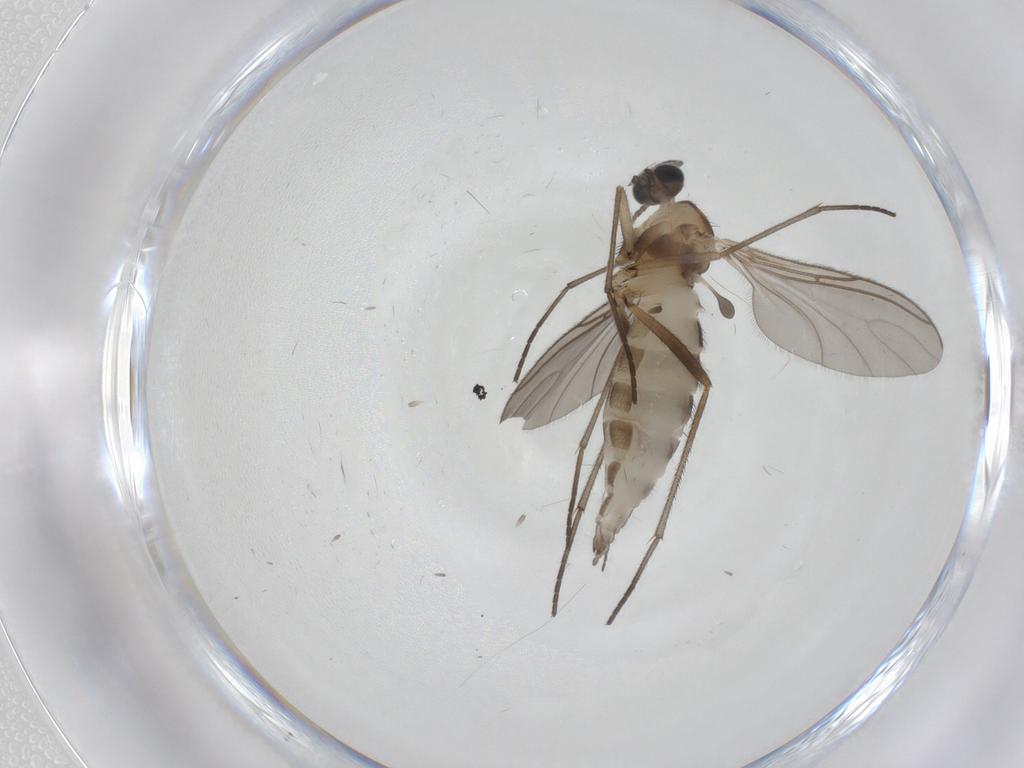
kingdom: Animalia
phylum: Arthropoda
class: Insecta
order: Diptera
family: Sciaridae
